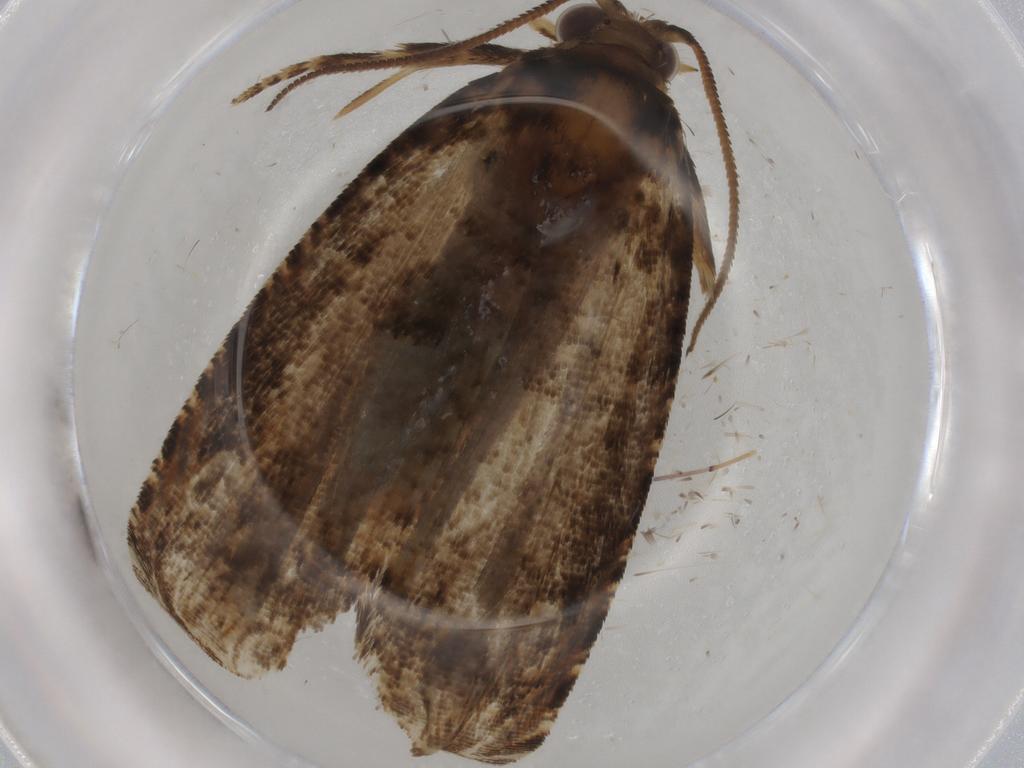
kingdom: Animalia
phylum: Arthropoda
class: Insecta
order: Lepidoptera
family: Tortricidae
